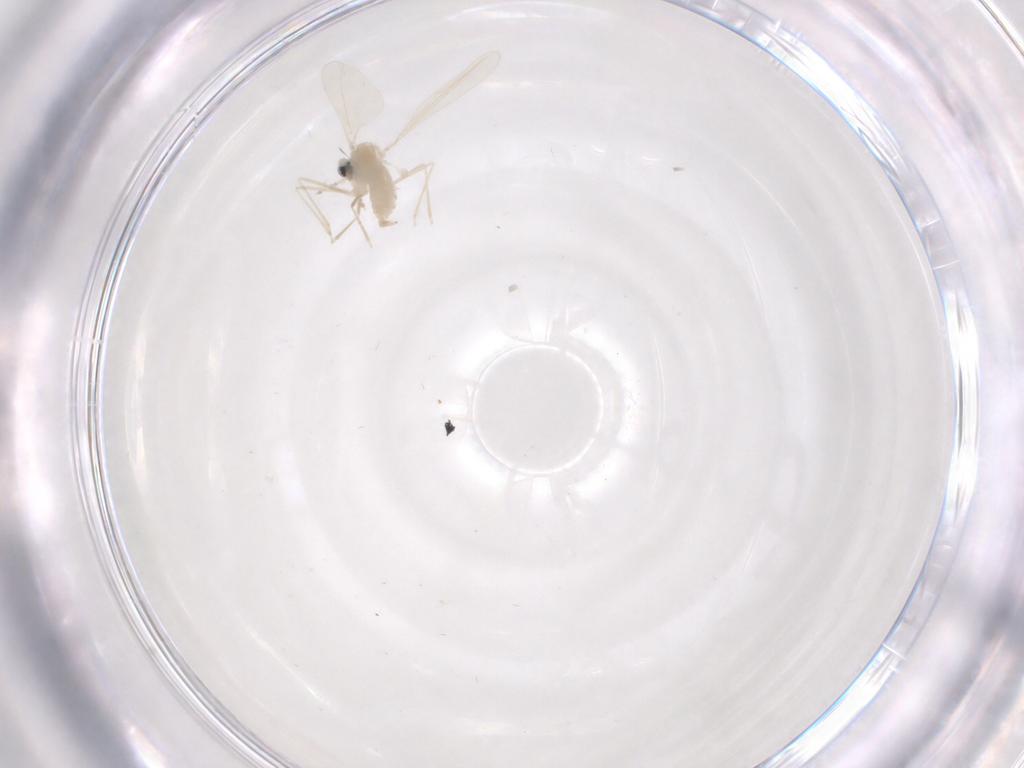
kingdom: Animalia
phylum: Arthropoda
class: Insecta
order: Diptera
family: Cecidomyiidae
